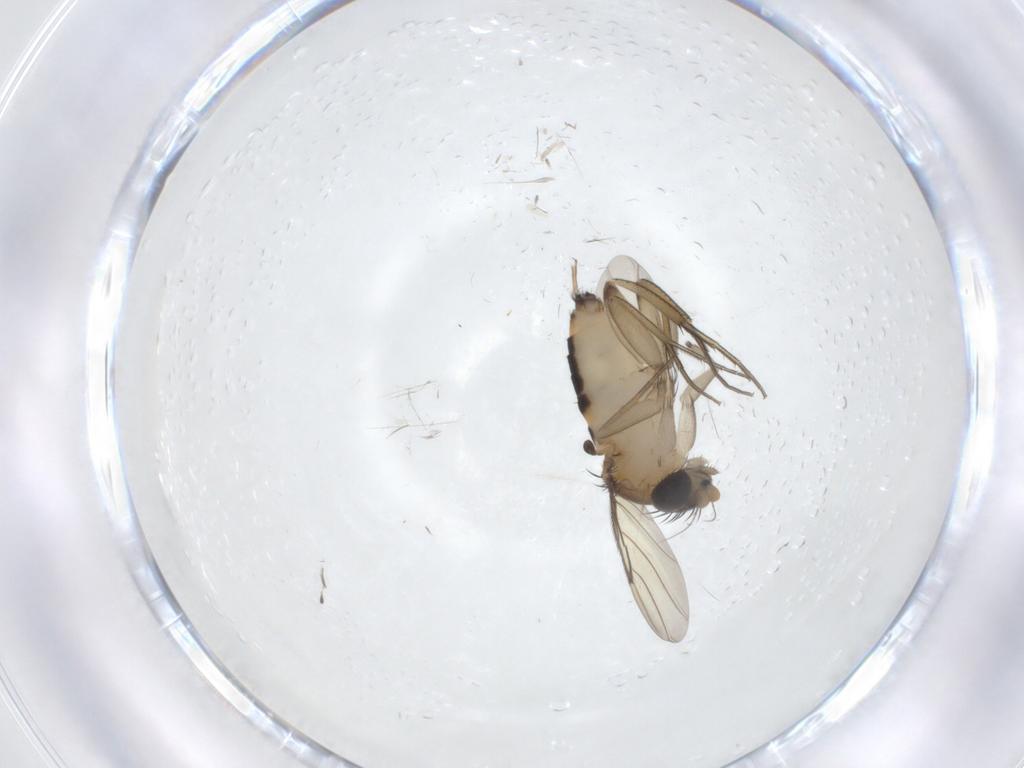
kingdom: Animalia
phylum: Arthropoda
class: Insecta
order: Diptera
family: Phoridae
